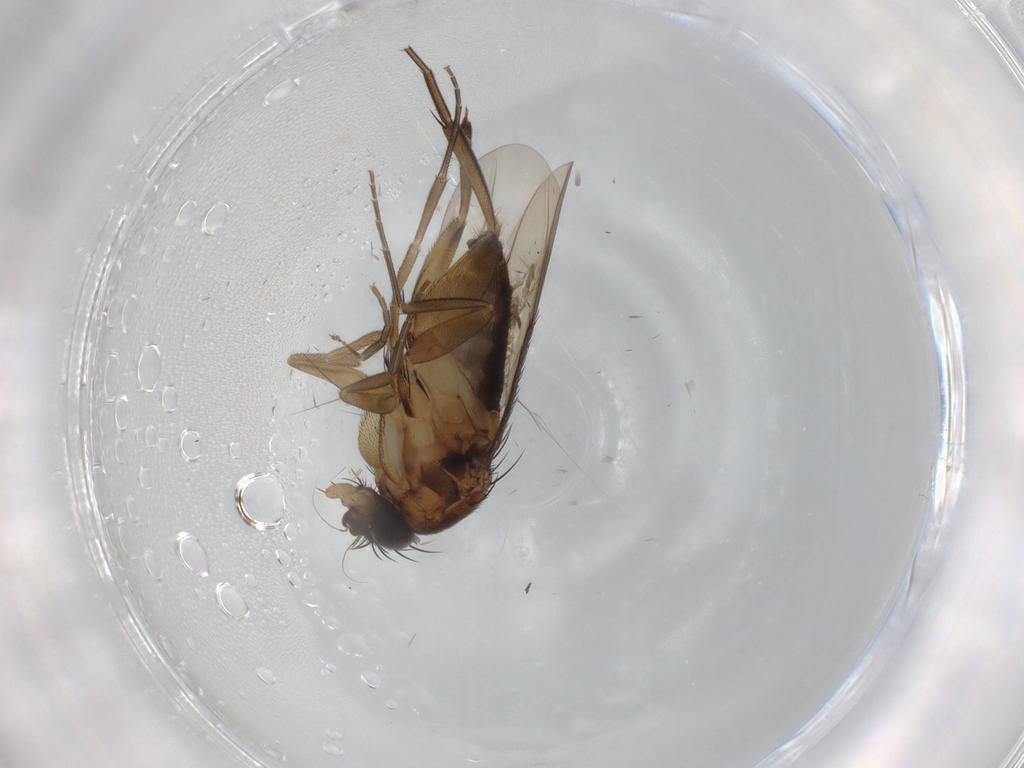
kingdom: Animalia
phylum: Arthropoda
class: Insecta
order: Diptera
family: Phoridae
